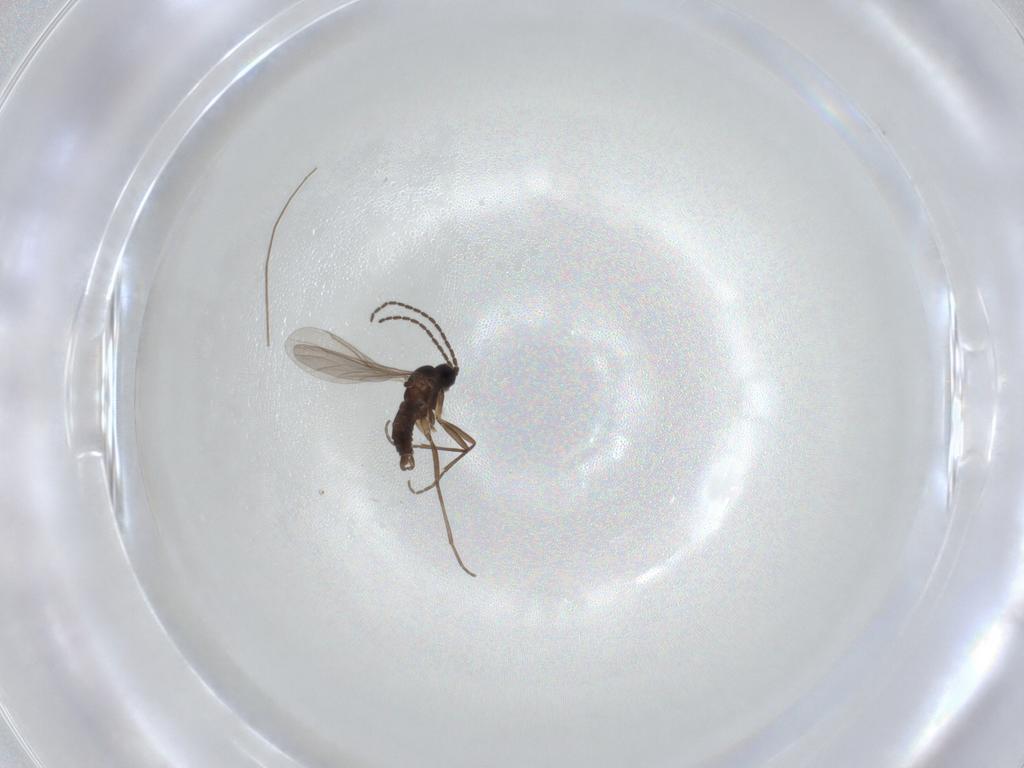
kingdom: Animalia
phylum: Arthropoda
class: Insecta
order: Diptera
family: Sciaridae
